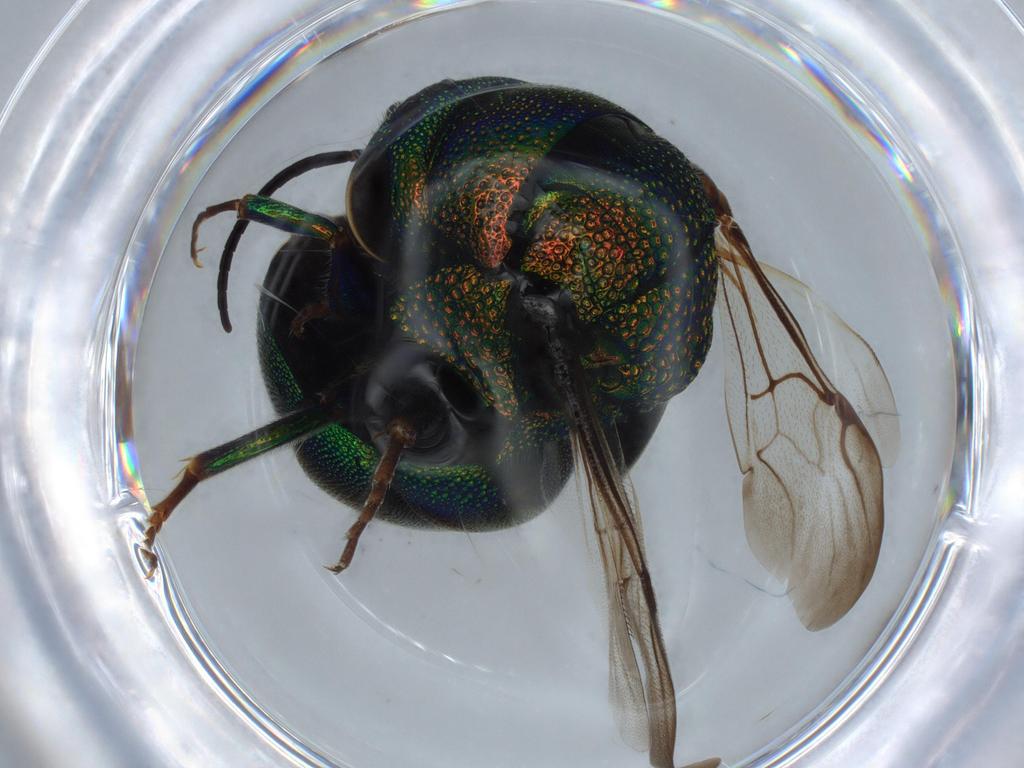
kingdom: Animalia
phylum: Arthropoda
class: Insecta
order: Hymenoptera
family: Chrysididae
